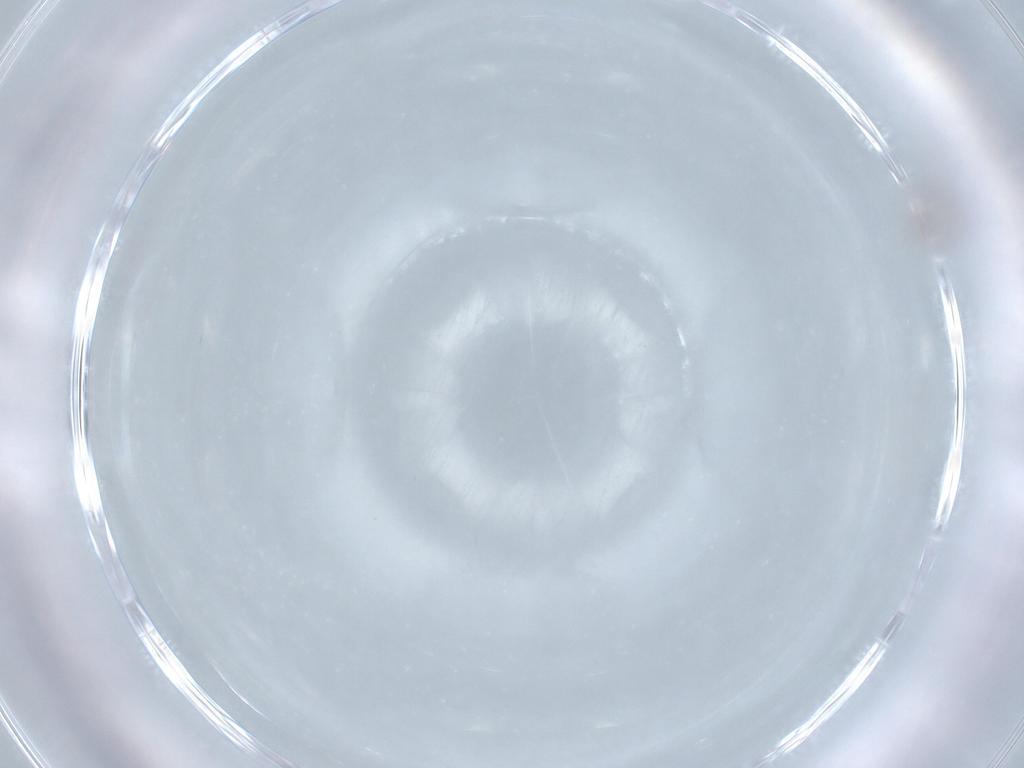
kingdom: Animalia
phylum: Arthropoda
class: Insecta
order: Hymenoptera
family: Mymaridae
